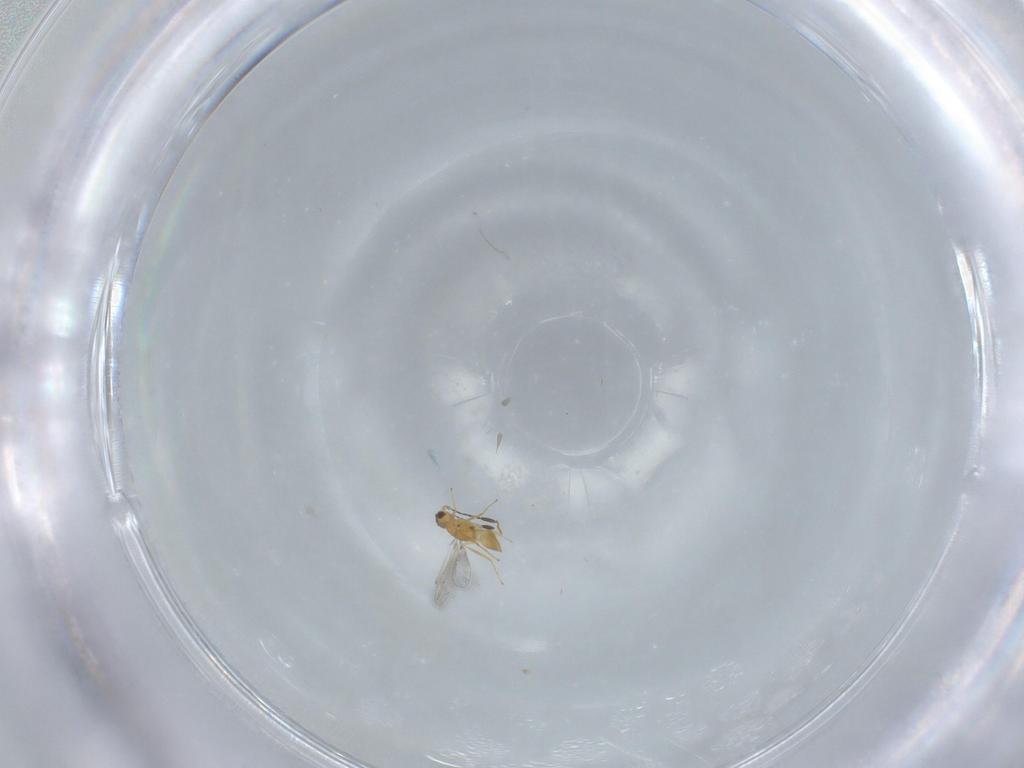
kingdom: Animalia
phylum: Arthropoda
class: Insecta
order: Hymenoptera
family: Mymaridae
